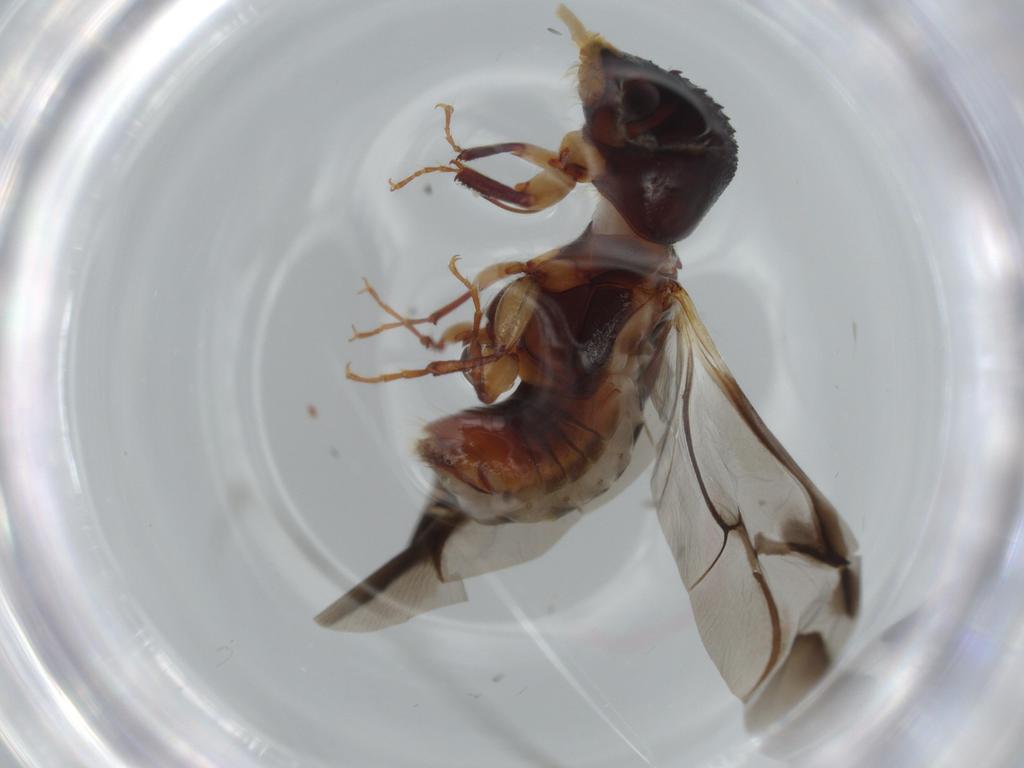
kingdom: Animalia
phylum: Arthropoda
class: Insecta
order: Coleoptera
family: Bostrichidae
